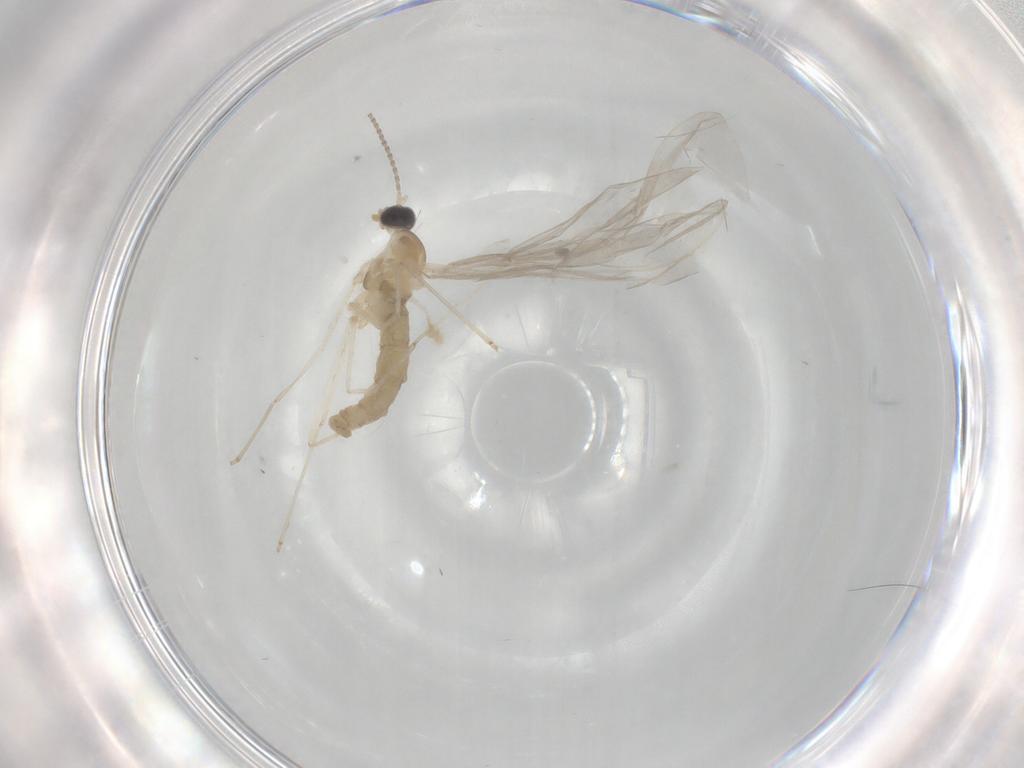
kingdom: Animalia
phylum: Arthropoda
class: Insecta
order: Diptera
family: Cecidomyiidae
